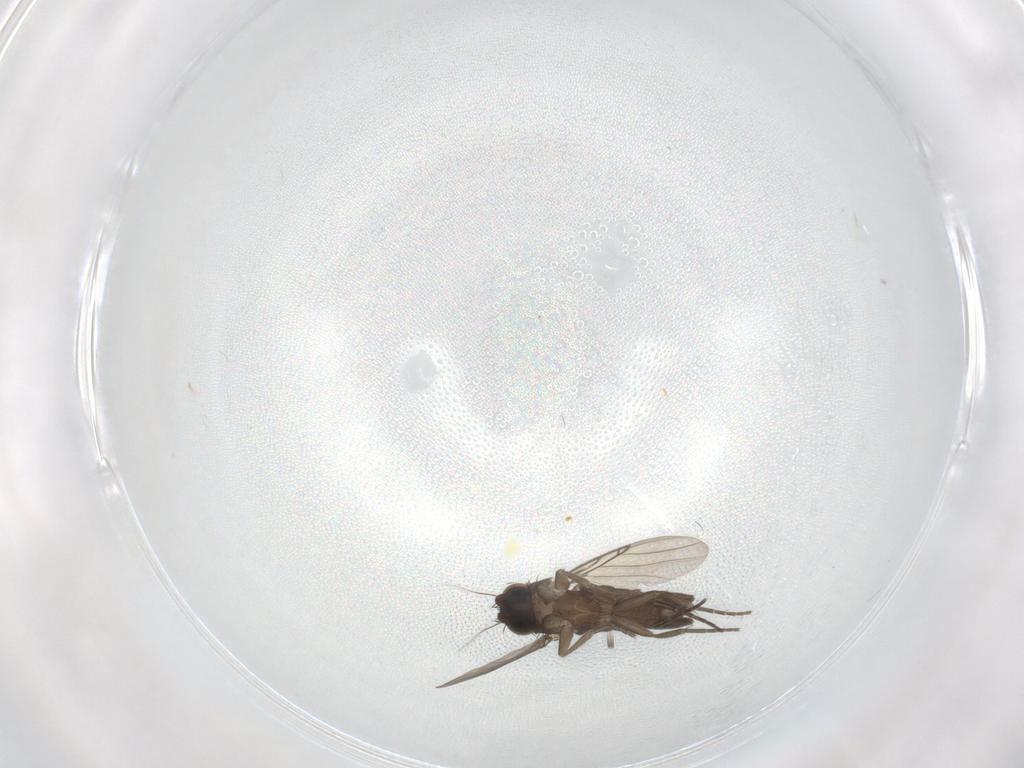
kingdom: Animalia
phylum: Arthropoda
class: Insecta
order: Diptera
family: Phoridae
